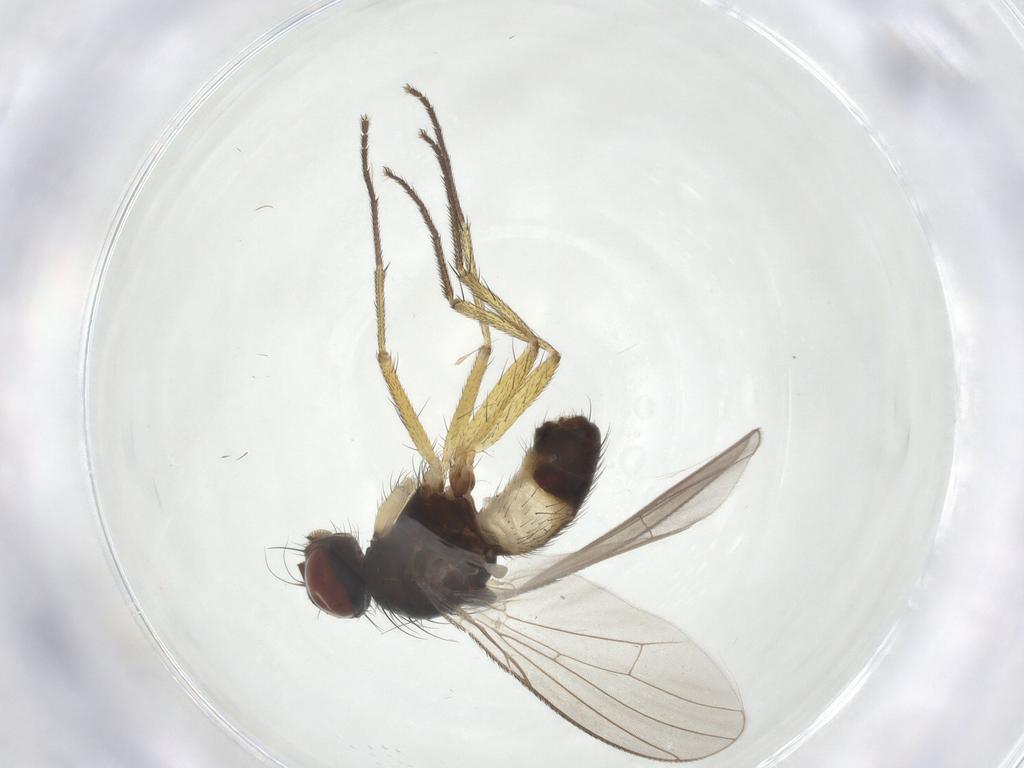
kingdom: Animalia
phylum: Arthropoda
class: Insecta
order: Diptera
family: Muscidae
